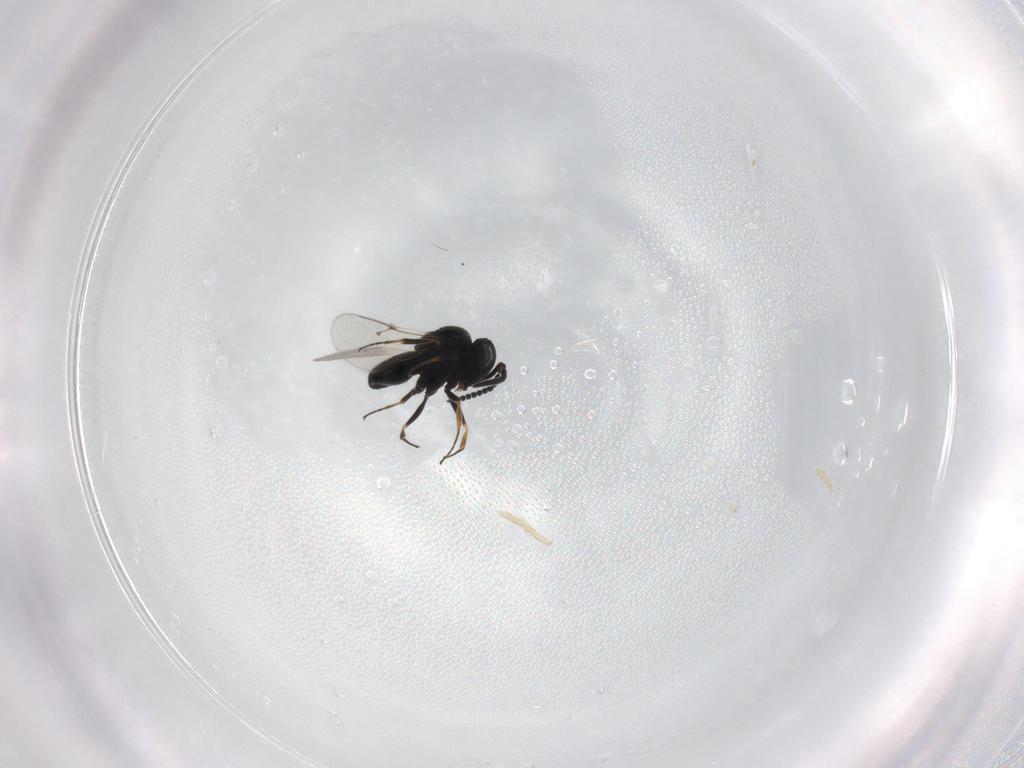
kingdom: Animalia
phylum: Arthropoda
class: Insecta
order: Hymenoptera
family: Scelionidae
